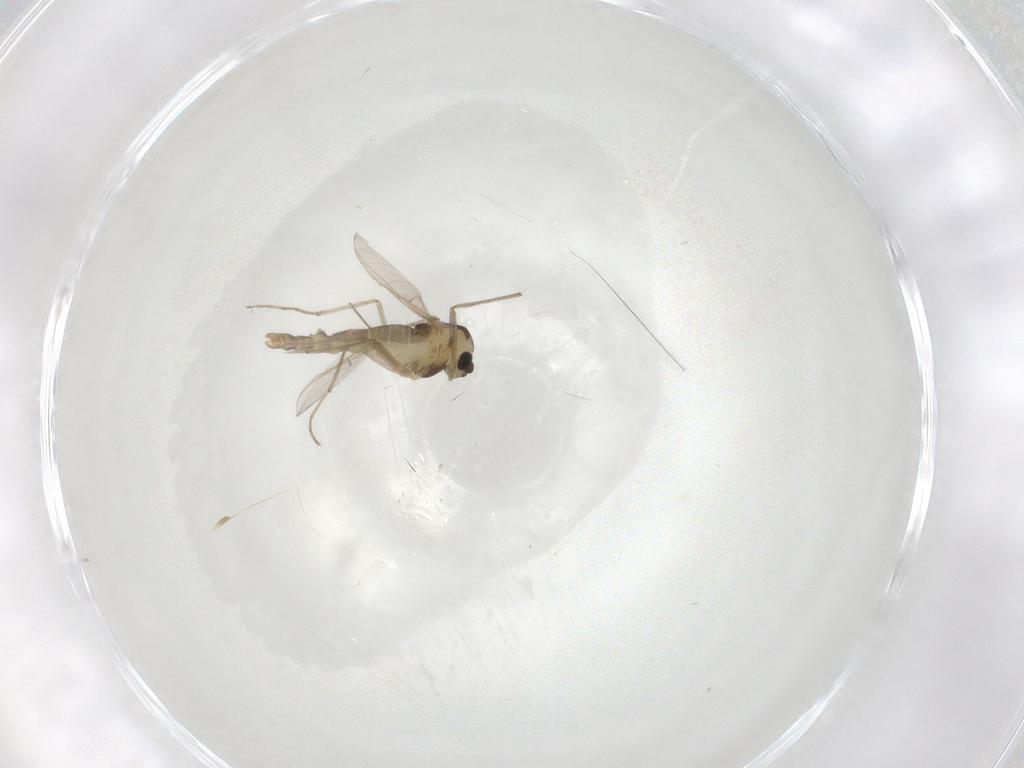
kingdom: Animalia
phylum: Arthropoda
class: Insecta
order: Diptera
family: Chironomidae
